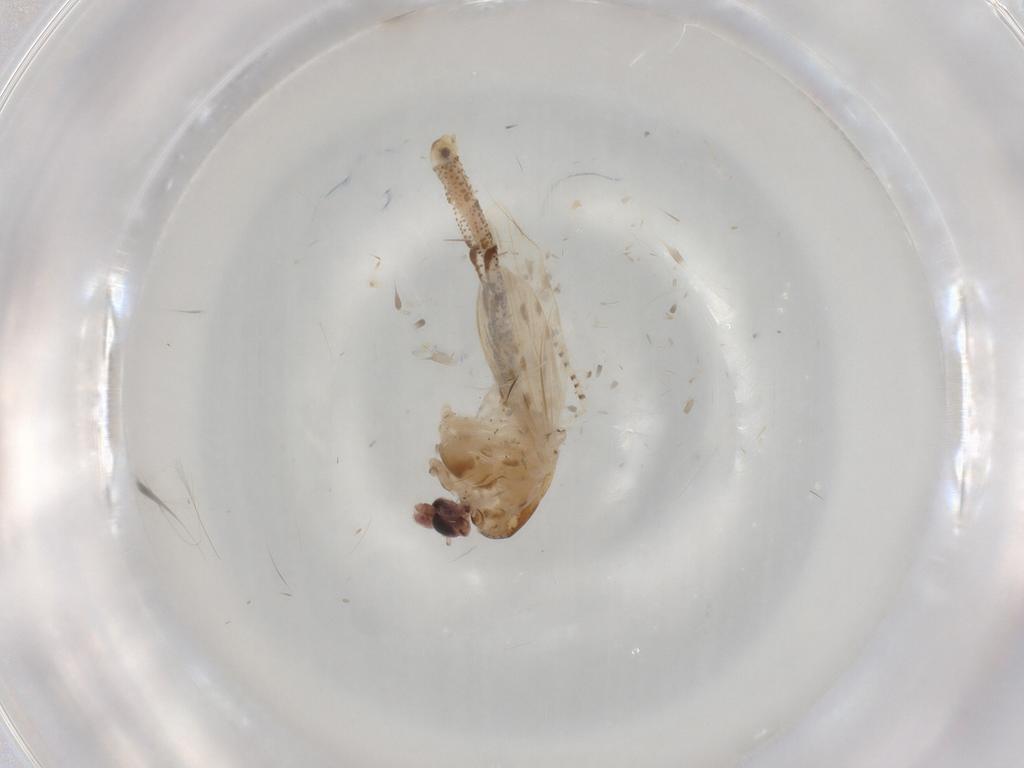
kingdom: Animalia
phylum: Arthropoda
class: Insecta
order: Diptera
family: Chaoboridae
